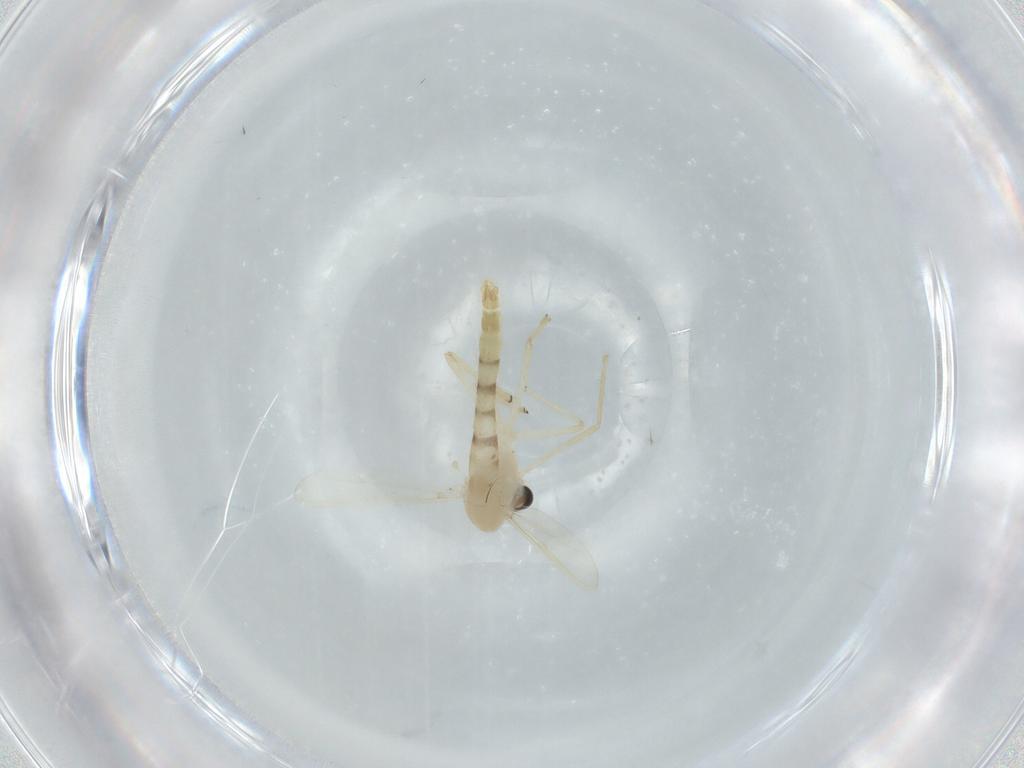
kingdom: Animalia
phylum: Arthropoda
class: Insecta
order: Diptera
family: Chironomidae
